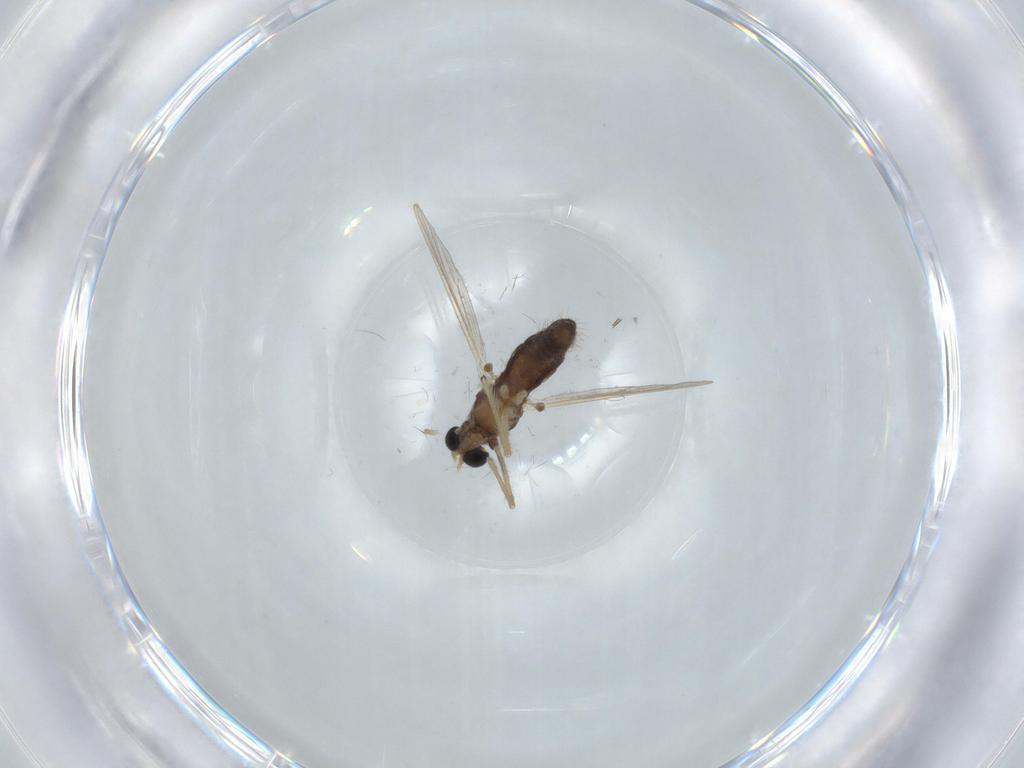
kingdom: Animalia
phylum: Arthropoda
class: Insecta
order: Diptera
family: Chironomidae
